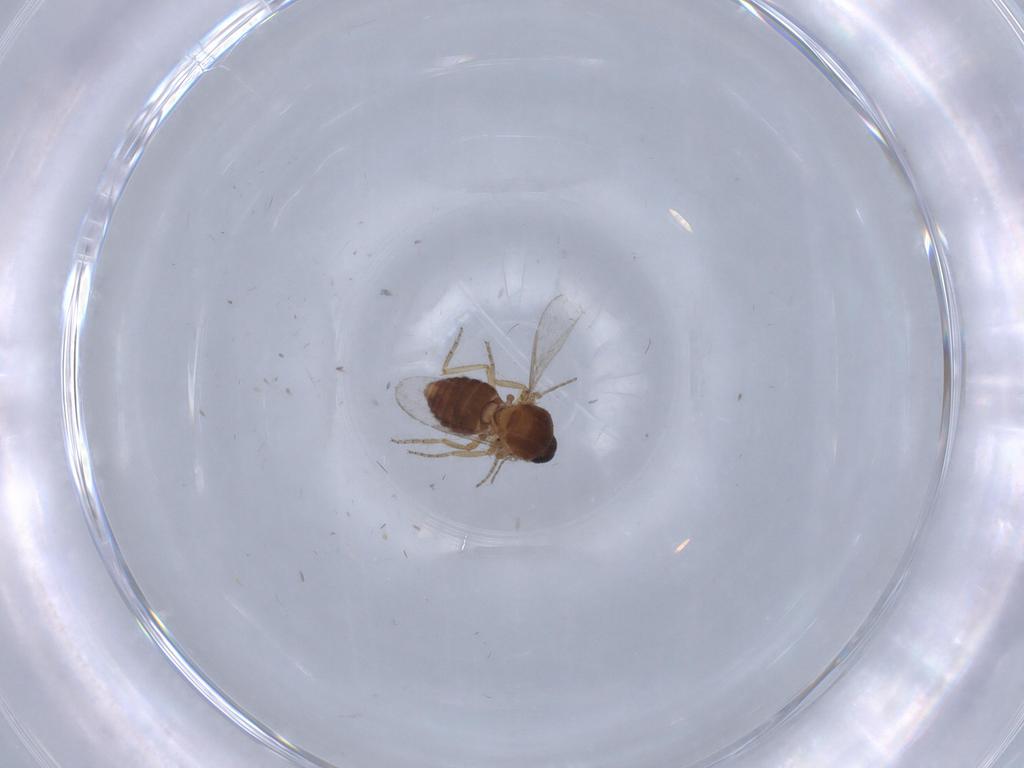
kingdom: Animalia
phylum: Arthropoda
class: Insecta
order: Diptera
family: Ceratopogonidae
